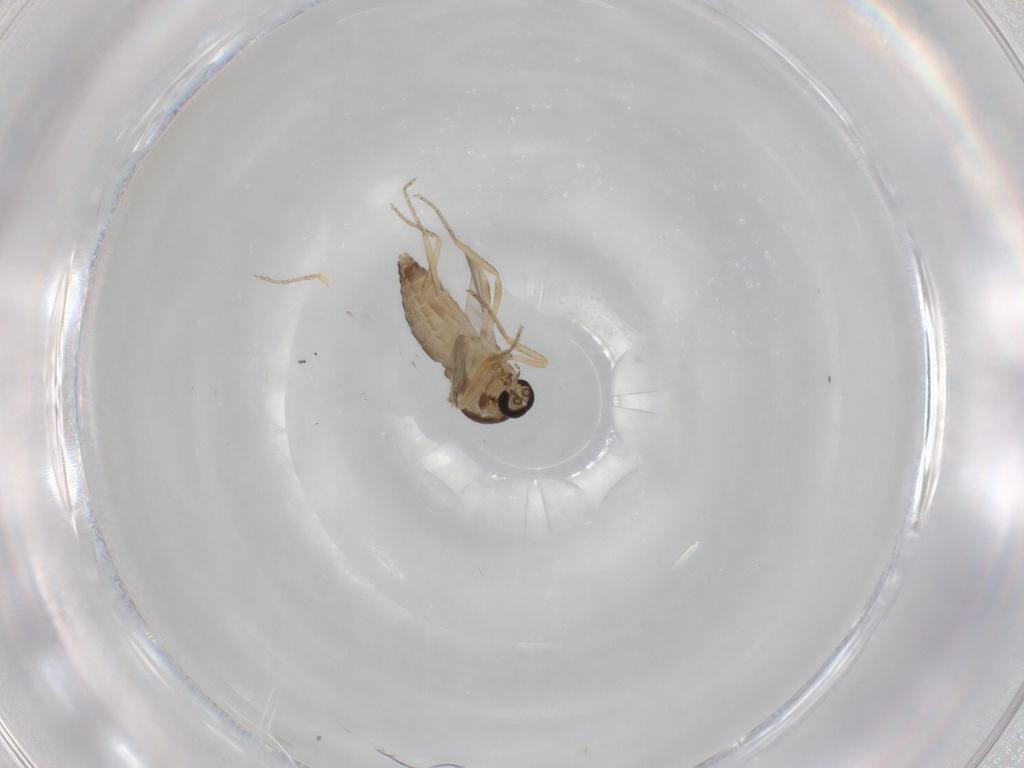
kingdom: Animalia
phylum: Arthropoda
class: Insecta
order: Diptera
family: Ceratopogonidae
